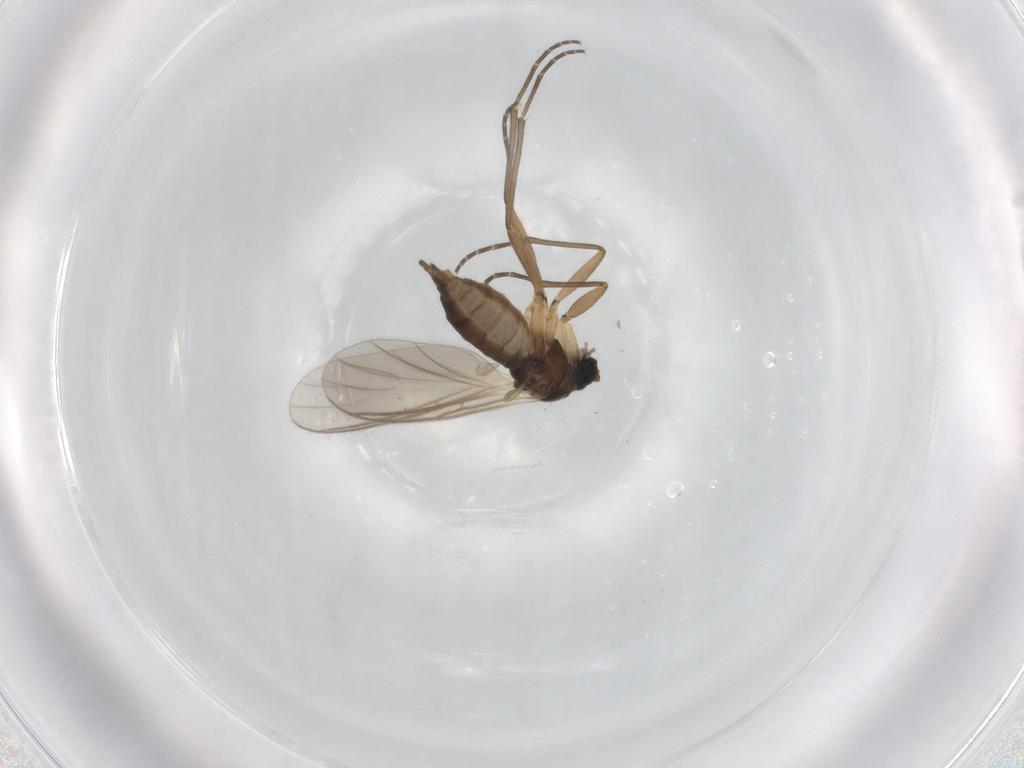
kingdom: Animalia
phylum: Arthropoda
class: Insecta
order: Diptera
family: Sciaridae
